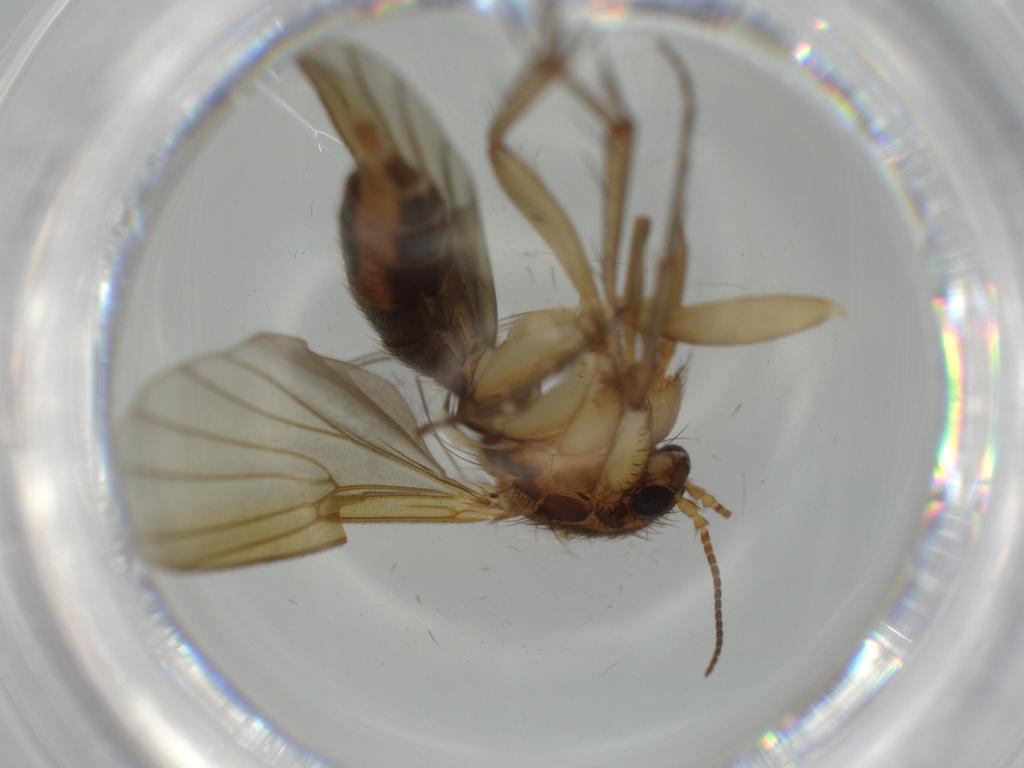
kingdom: Animalia
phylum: Arthropoda
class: Insecta
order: Diptera
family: Mycetophilidae
